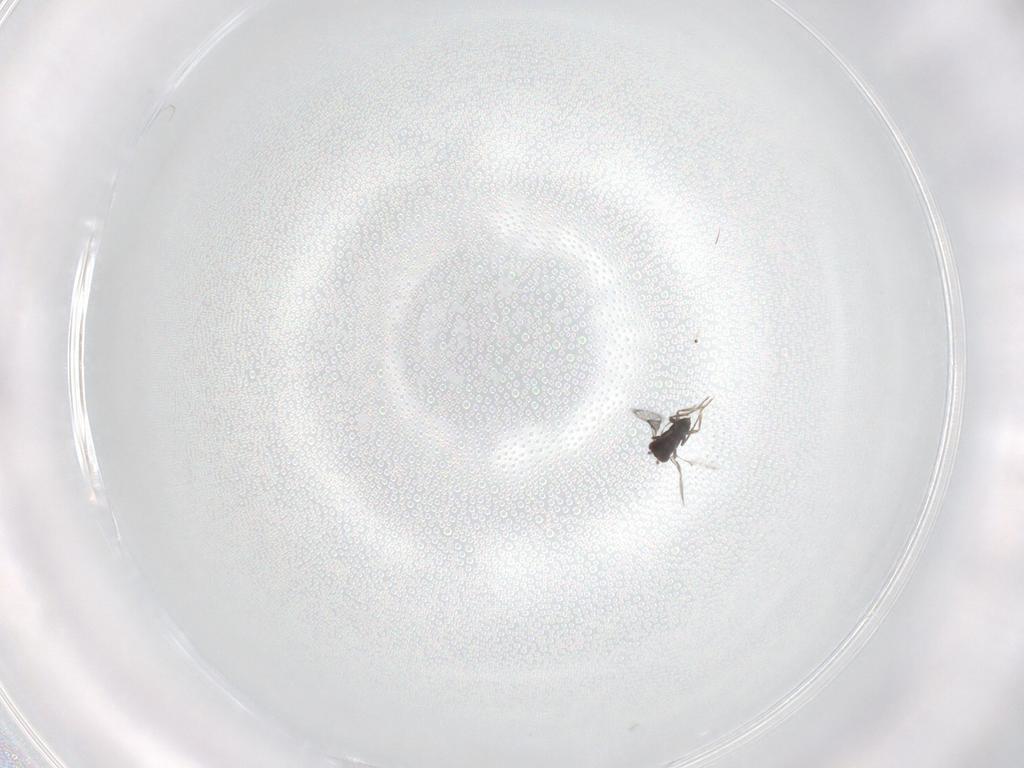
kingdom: Animalia
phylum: Arthropoda
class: Insecta
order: Hymenoptera
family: Trichogrammatidae
